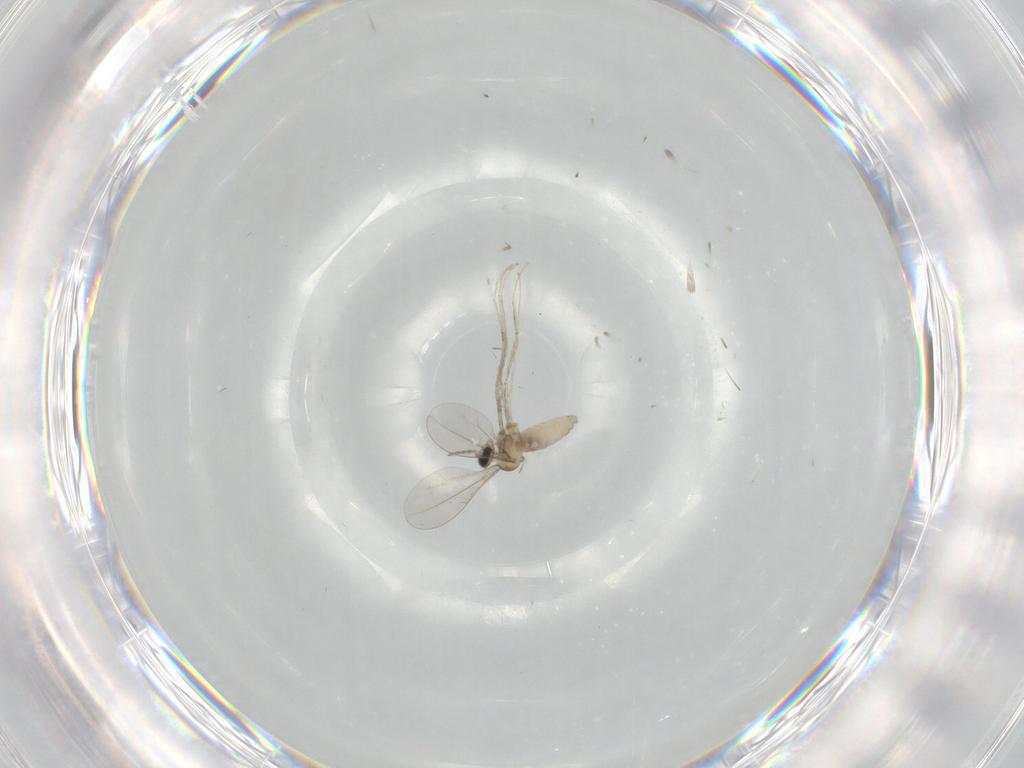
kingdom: Animalia
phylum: Arthropoda
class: Insecta
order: Diptera
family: Cecidomyiidae
